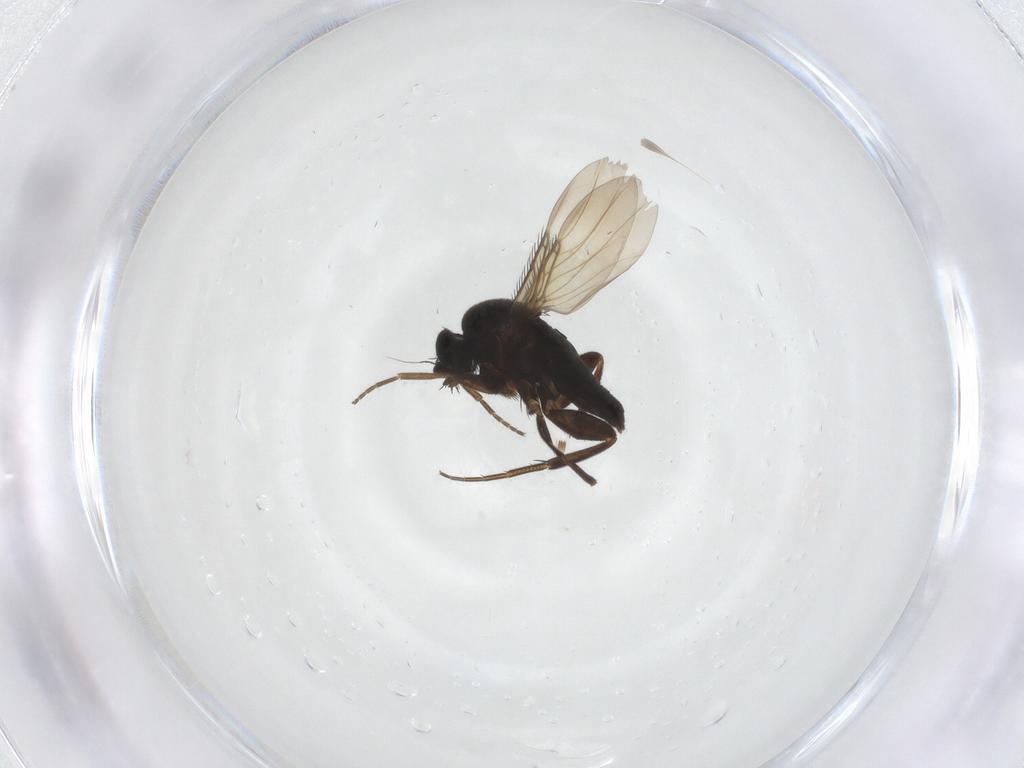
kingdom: Animalia
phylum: Arthropoda
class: Insecta
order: Diptera
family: Phoridae
